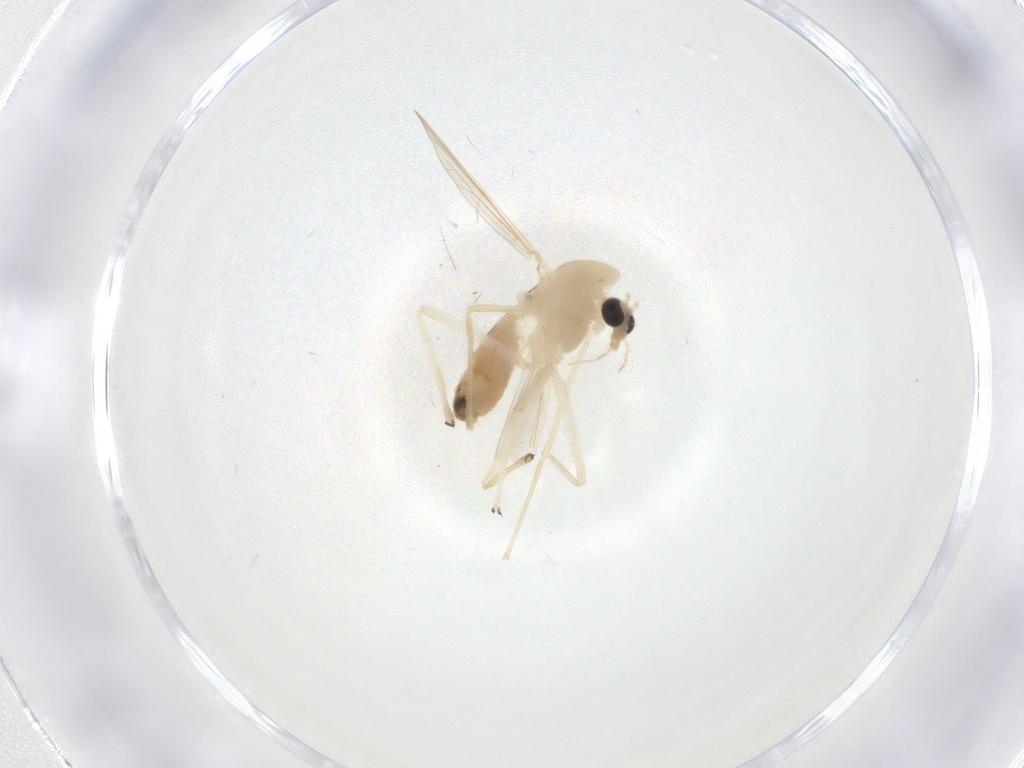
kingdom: Animalia
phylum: Arthropoda
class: Insecta
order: Diptera
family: Chironomidae
